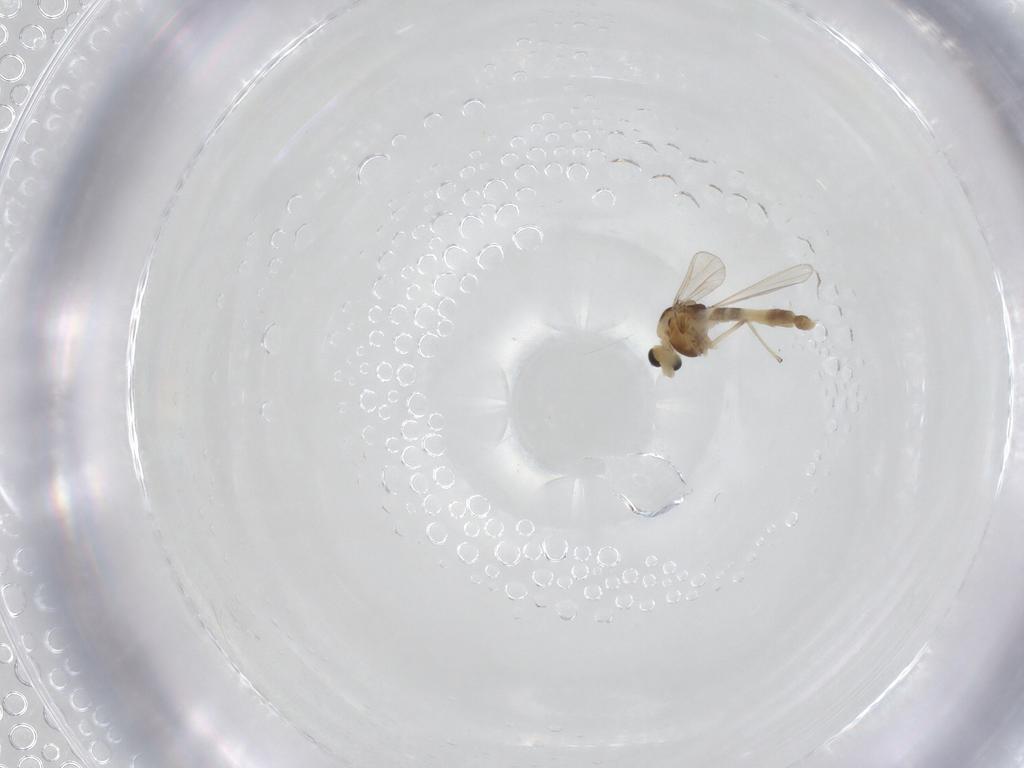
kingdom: Animalia
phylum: Arthropoda
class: Insecta
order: Diptera
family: Chironomidae
